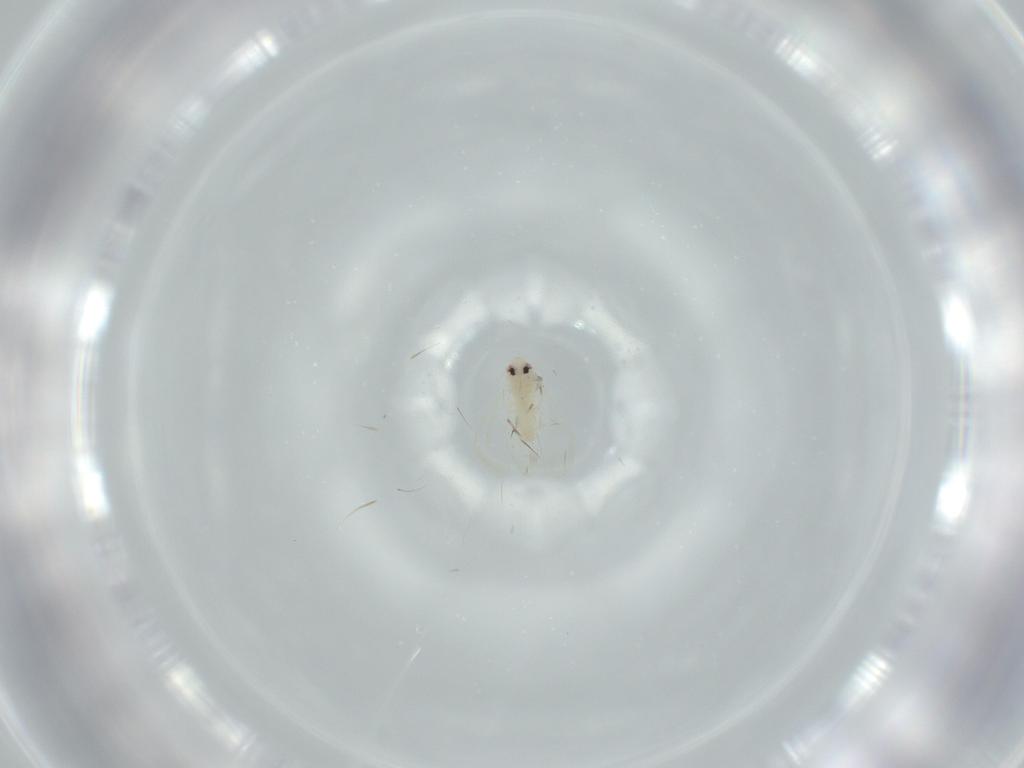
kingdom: Animalia
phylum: Arthropoda
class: Insecta
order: Hemiptera
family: Aleyrodidae
